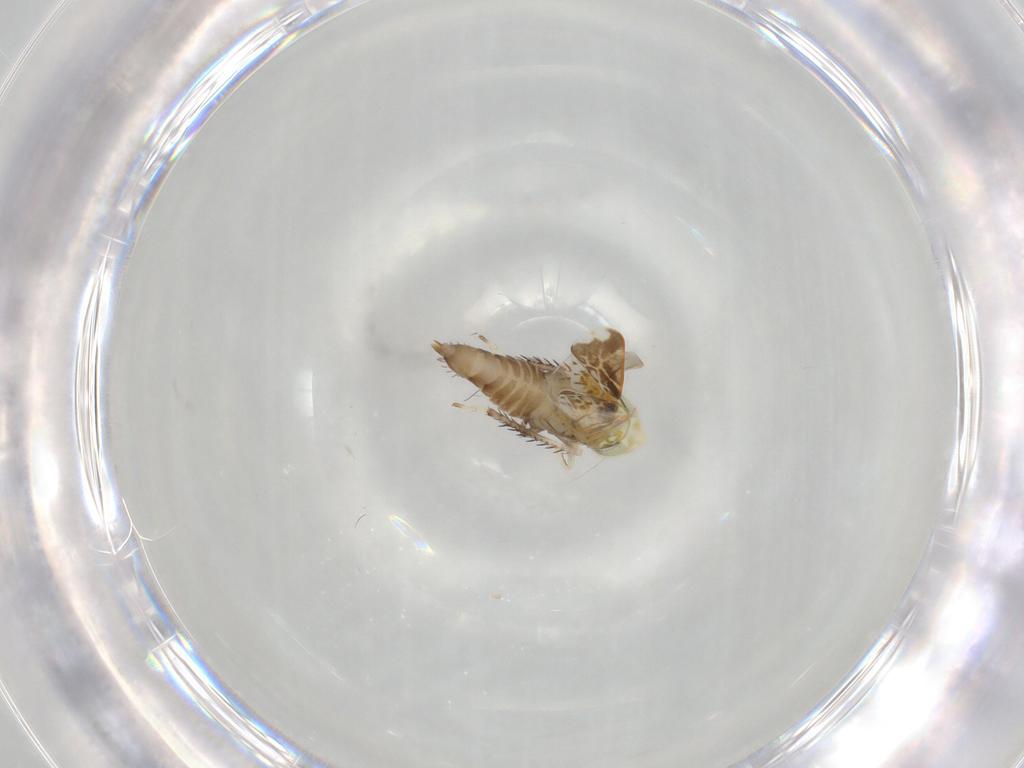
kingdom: Animalia
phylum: Arthropoda
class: Insecta
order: Hemiptera
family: Cicadellidae
